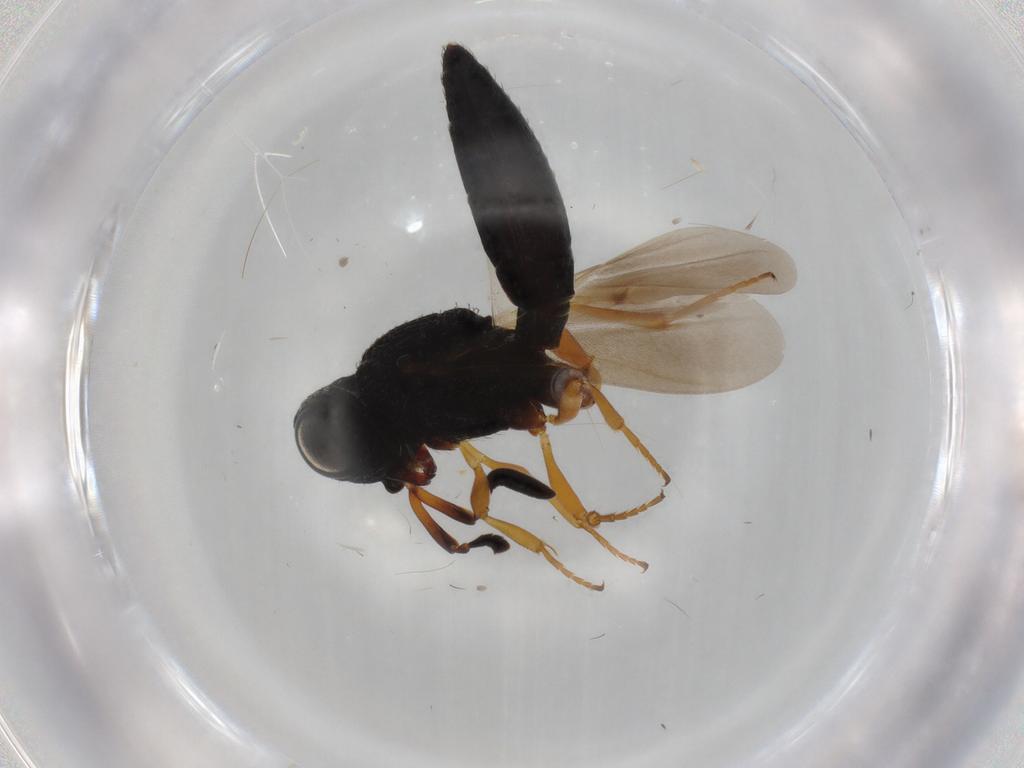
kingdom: Animalia
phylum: Arthropoda
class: Insecta
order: Hymenoptera
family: Scelionidae
